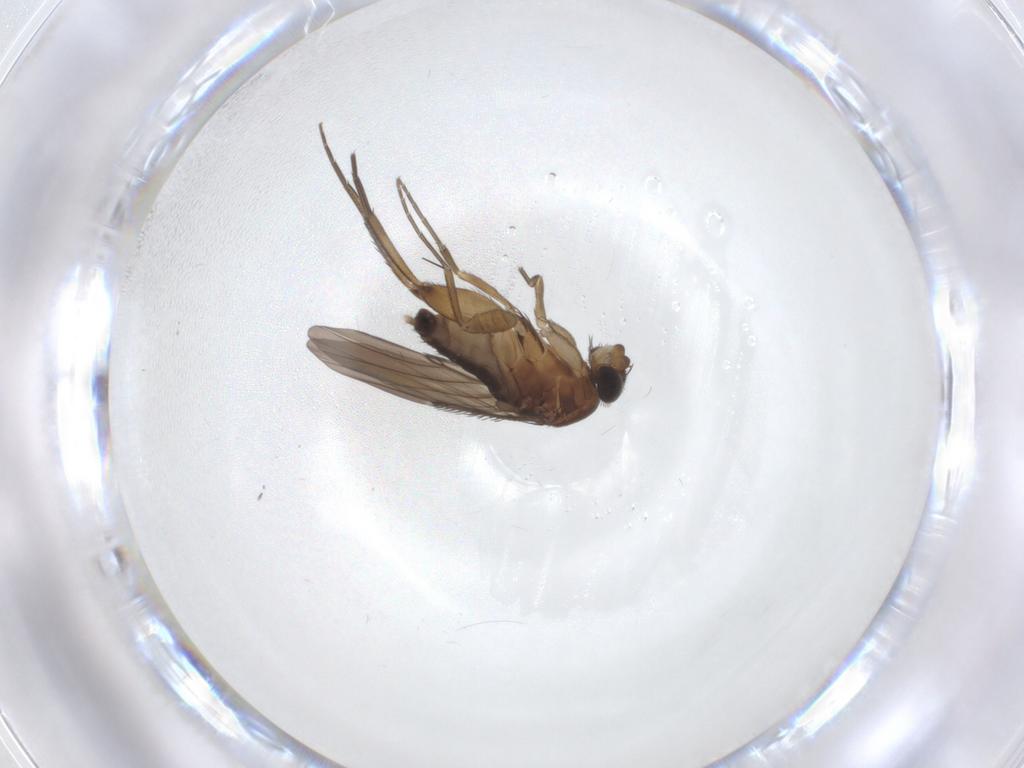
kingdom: Animalia
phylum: Arthropoda
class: Insecta
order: Diptera
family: Phoridae
